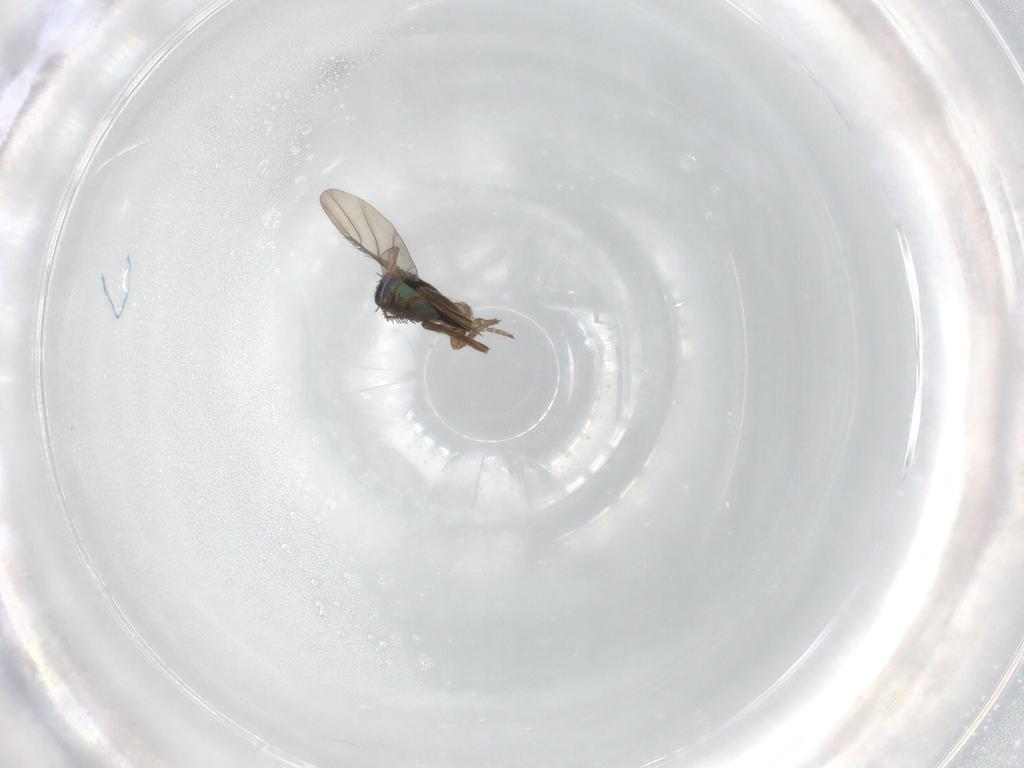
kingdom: Animalia
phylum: Arthropoda
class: Insecta
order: Diptera
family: Phoridae
